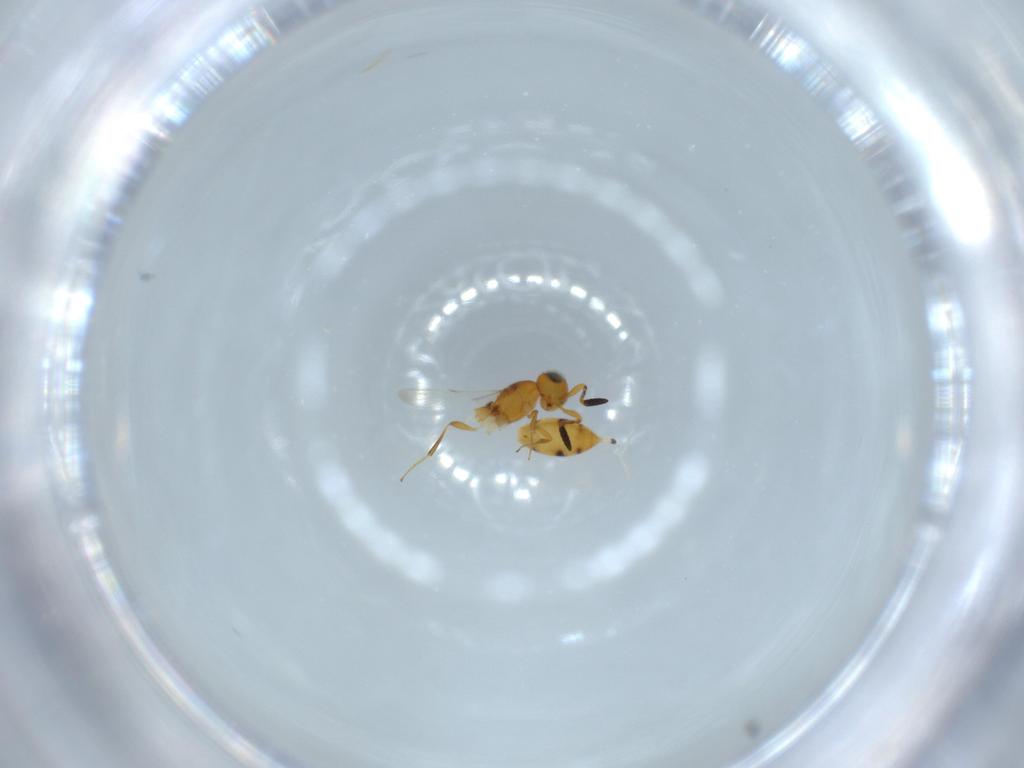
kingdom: Animalia
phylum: Arthropoda
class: Insecta
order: Hymenoptera
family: Scelionidae
